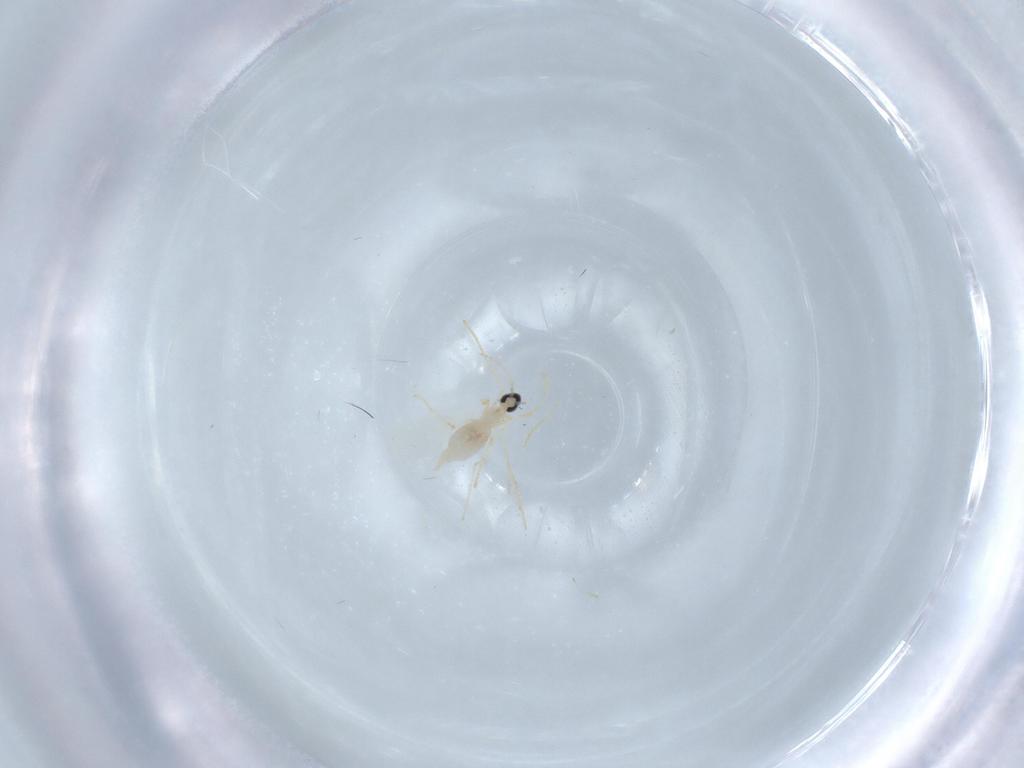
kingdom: Animalia
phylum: Arthropoda
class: Insecta
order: Diptera
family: Cecidomyiidae
